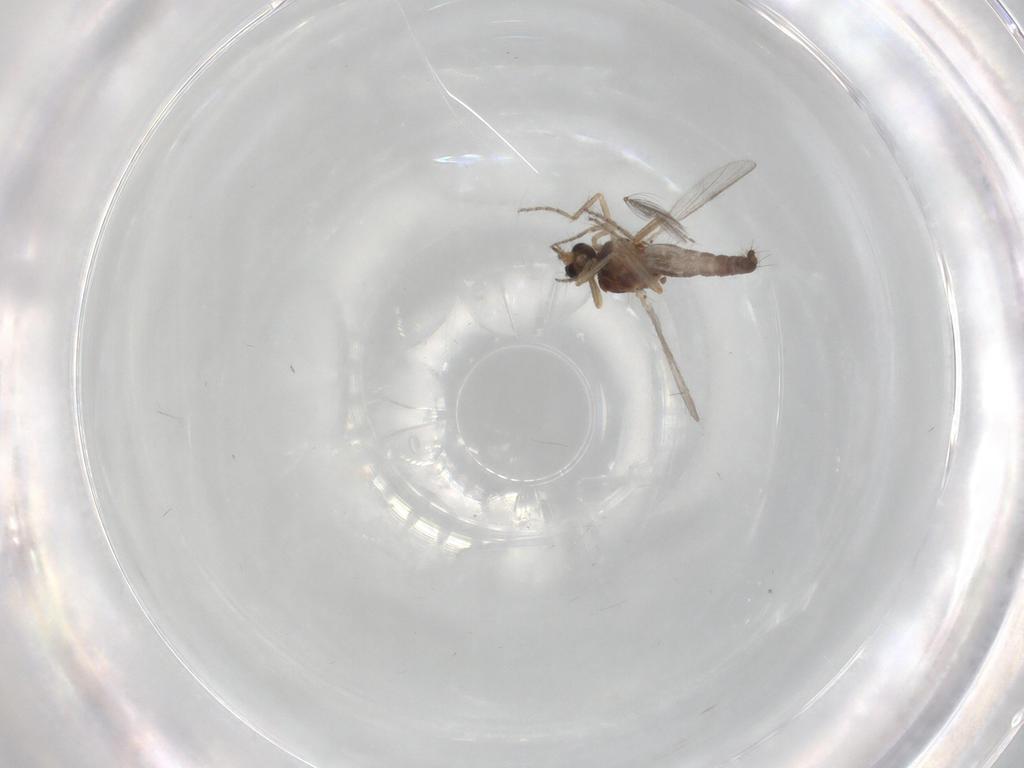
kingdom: Animalia
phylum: Arthropoda
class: Insecta
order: Diptera
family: Ceratopogonidae
